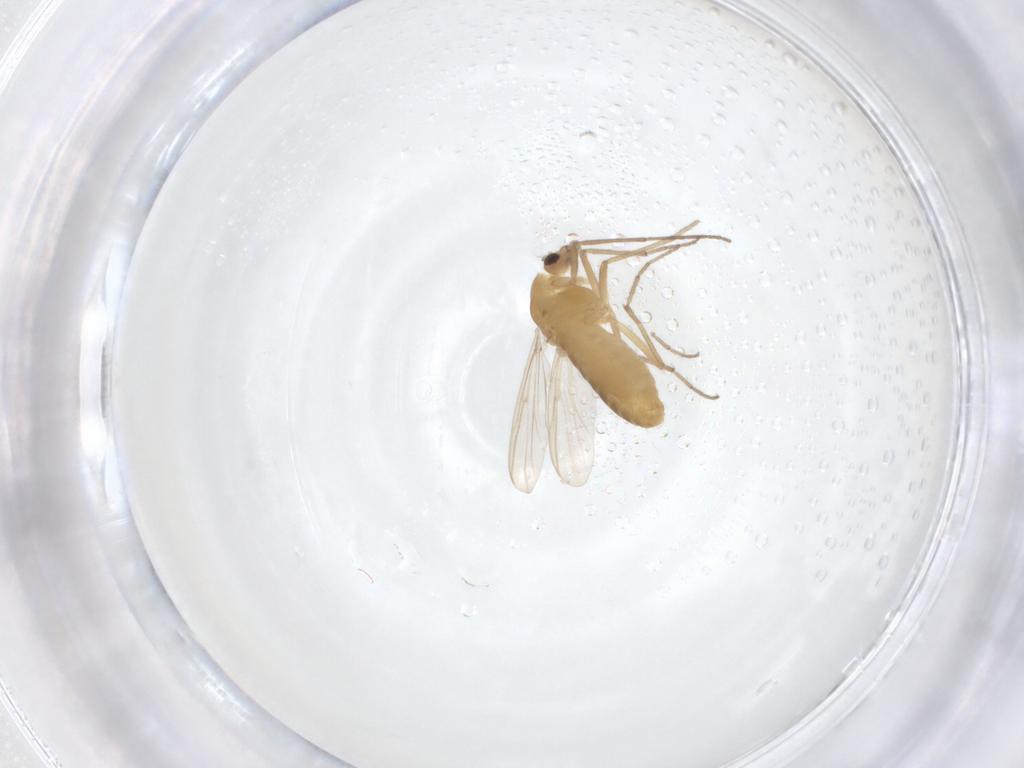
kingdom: Animalia
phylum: Arthropoda
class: Insecta
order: Diptera
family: Chironomidae
